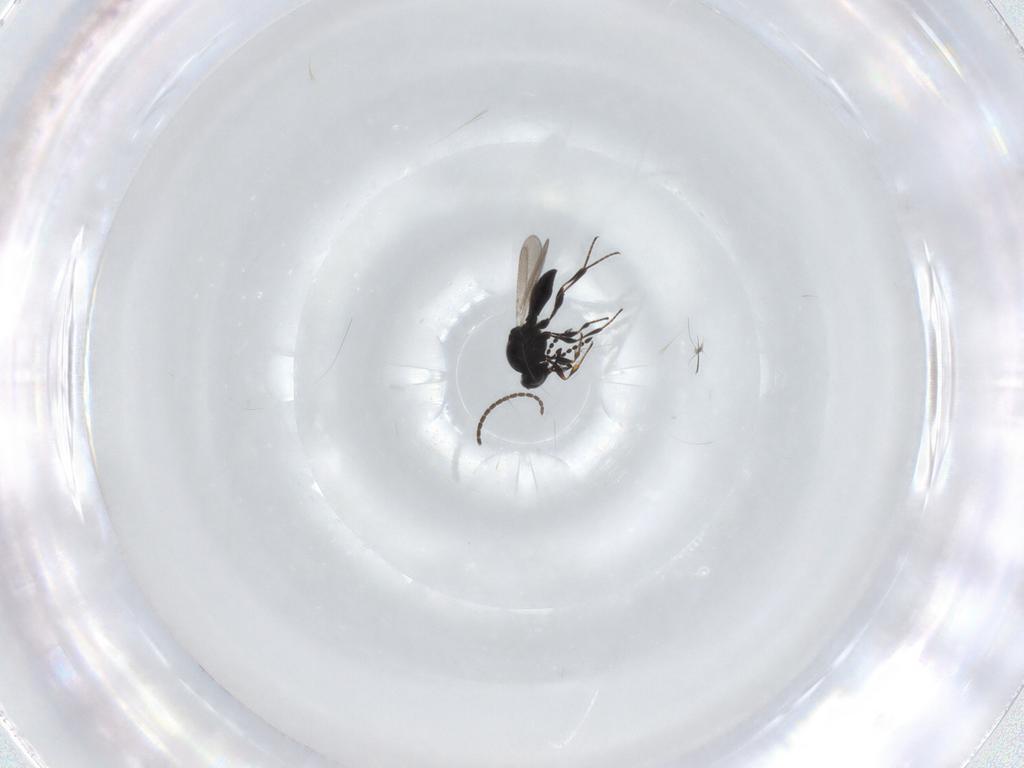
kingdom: Animalia
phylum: Arthropoda
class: Insecta
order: Hymenoptera
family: Platygastridae
